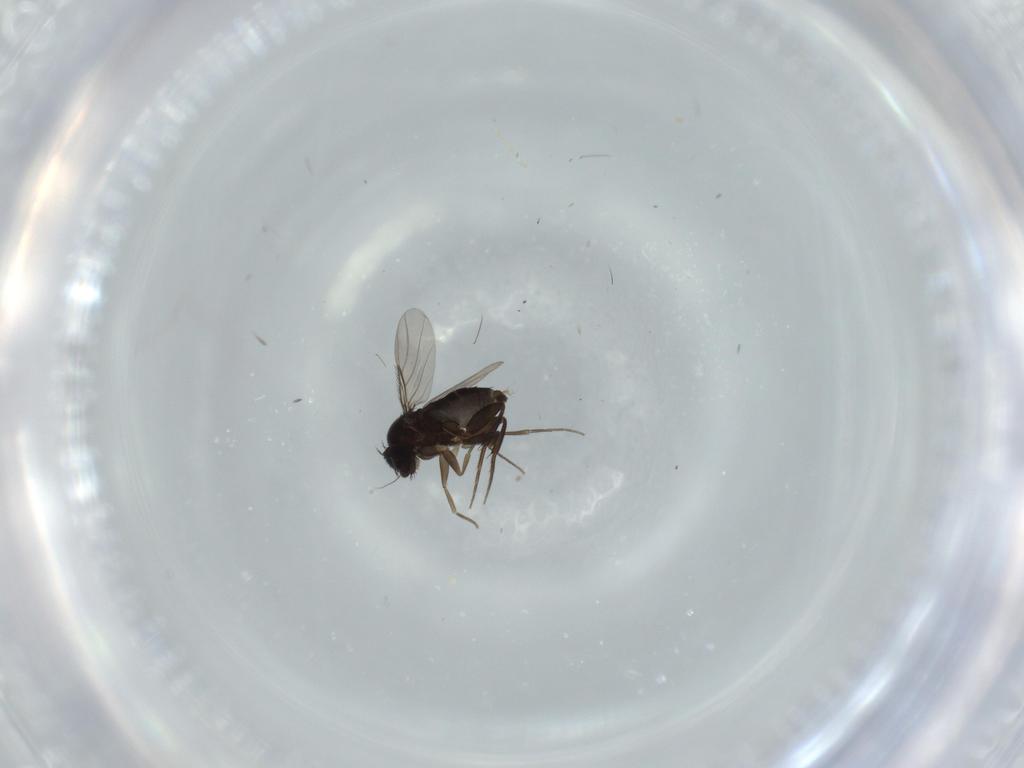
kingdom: Animalia
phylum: Arthropoda
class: Insecta
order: Diptera
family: Phoridae
